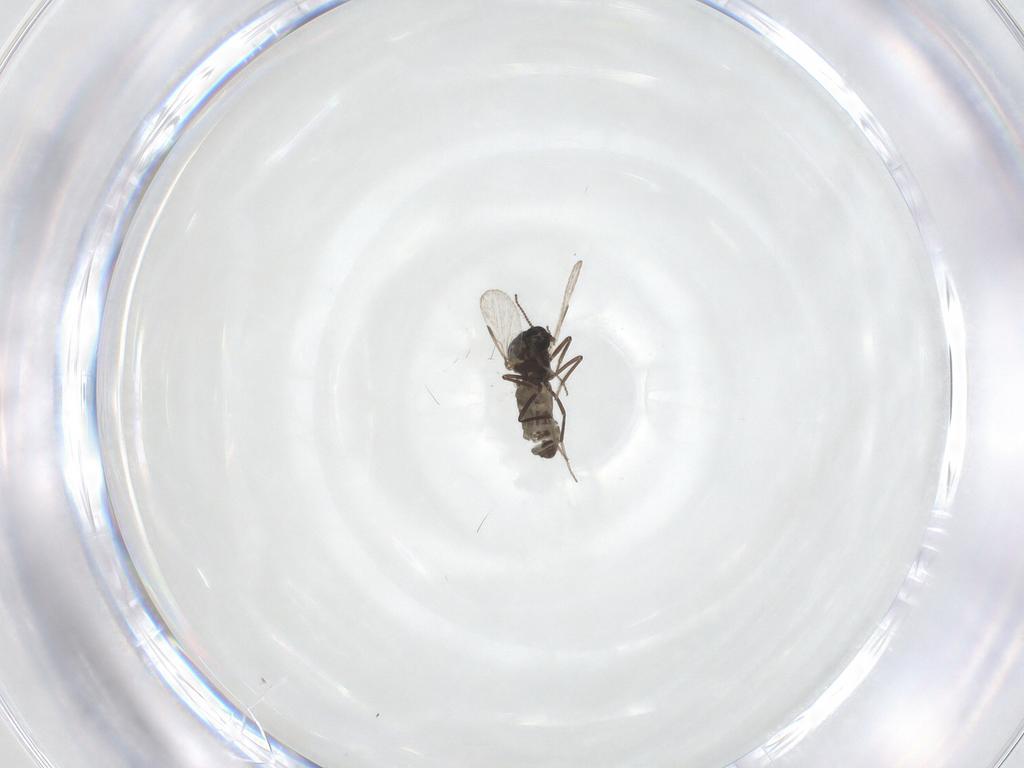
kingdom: Animalia
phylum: Arthropoda
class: Insecta
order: Diptera
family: Ceratopogonidae
